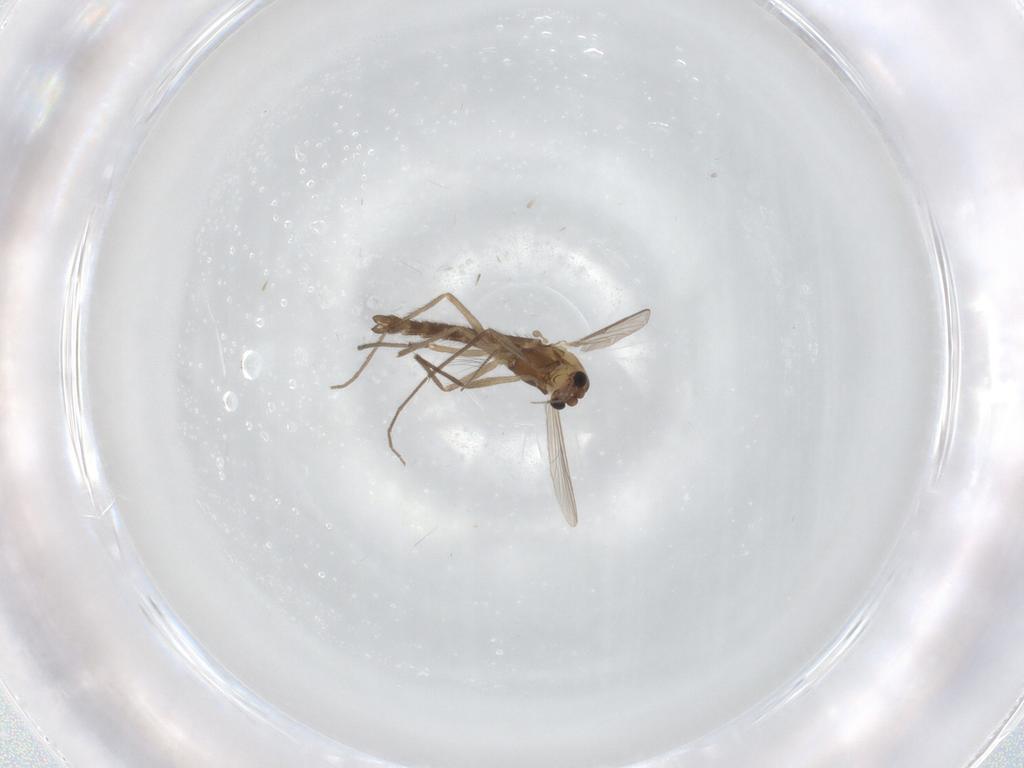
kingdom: Animalia
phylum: Arthropoda
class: Insecta
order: Diptera
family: Chironomidae
